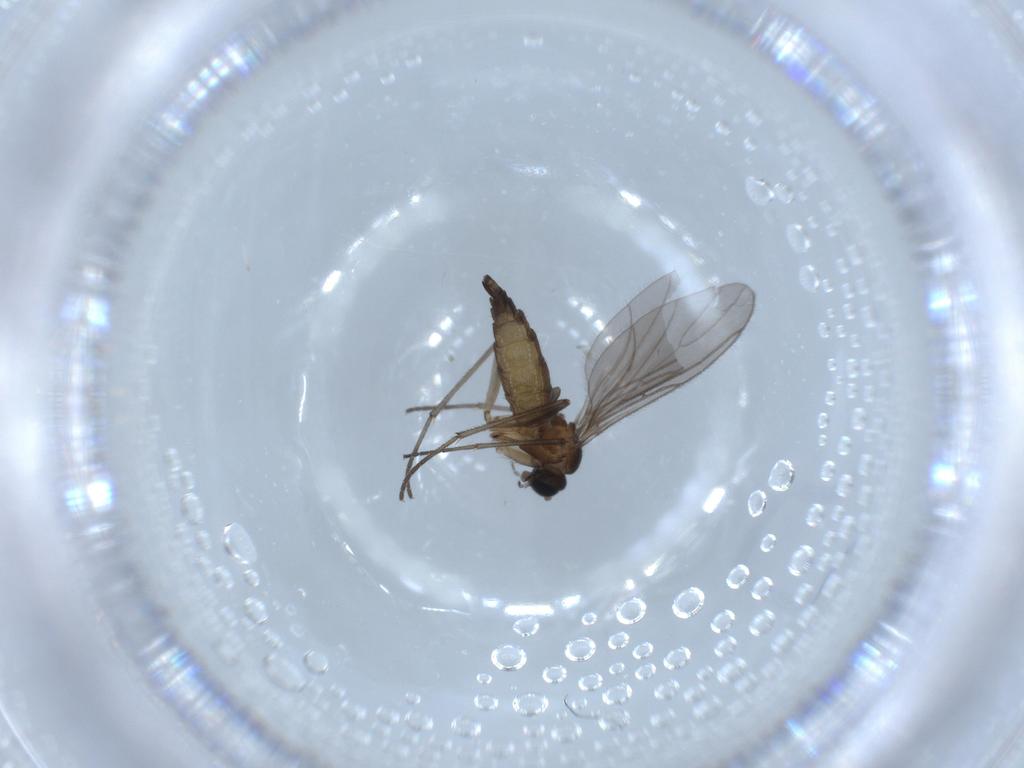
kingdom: Animalia
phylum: Arthropoda
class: Insecta
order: Diptera
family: Sciaridae
